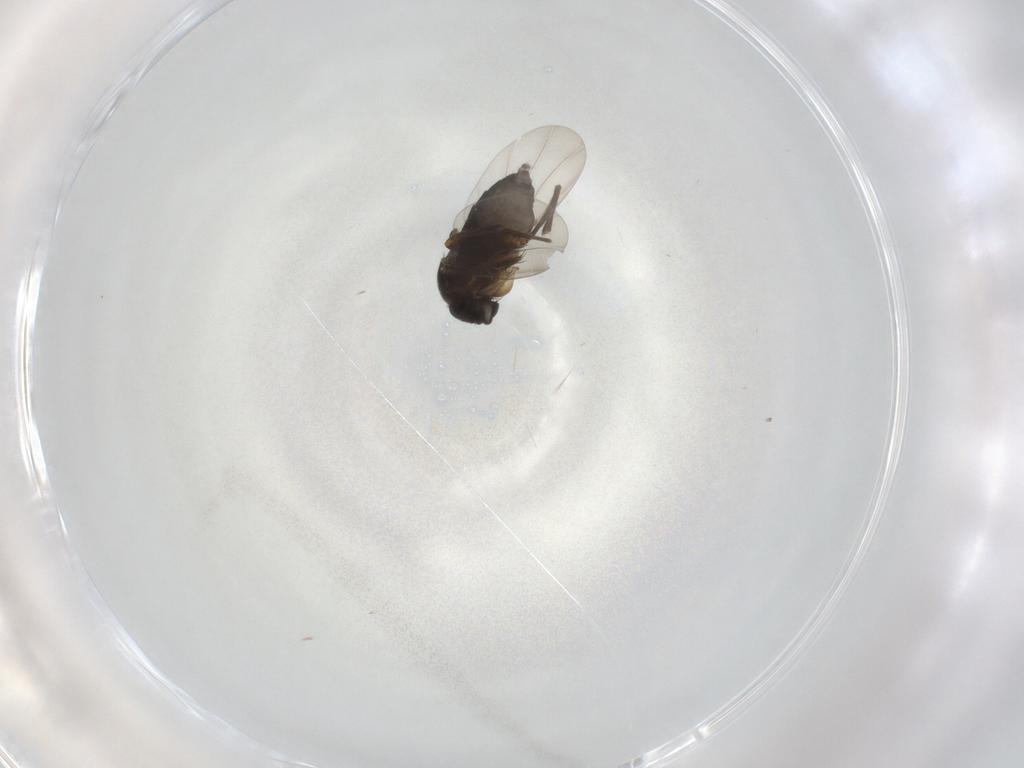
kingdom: Animalia
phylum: Arthropoda
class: Insecta
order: Diptera
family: Phoridae
